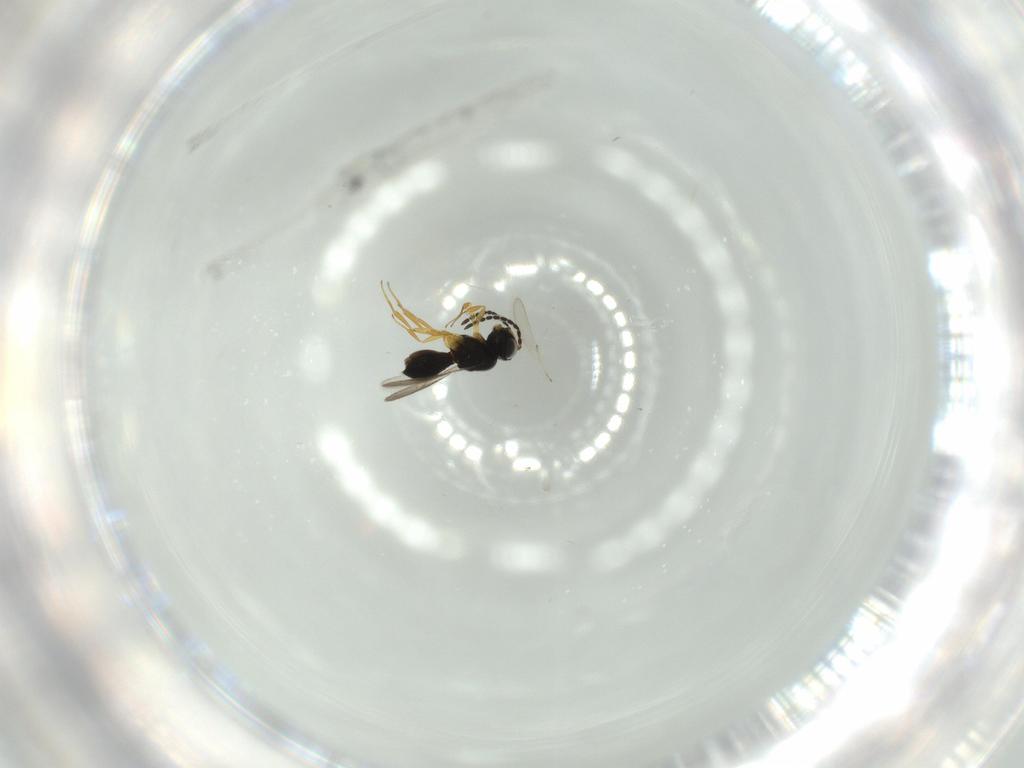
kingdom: Animalia
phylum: Arthropoda
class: Insecta
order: Hymenoptera
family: Scelionidae
